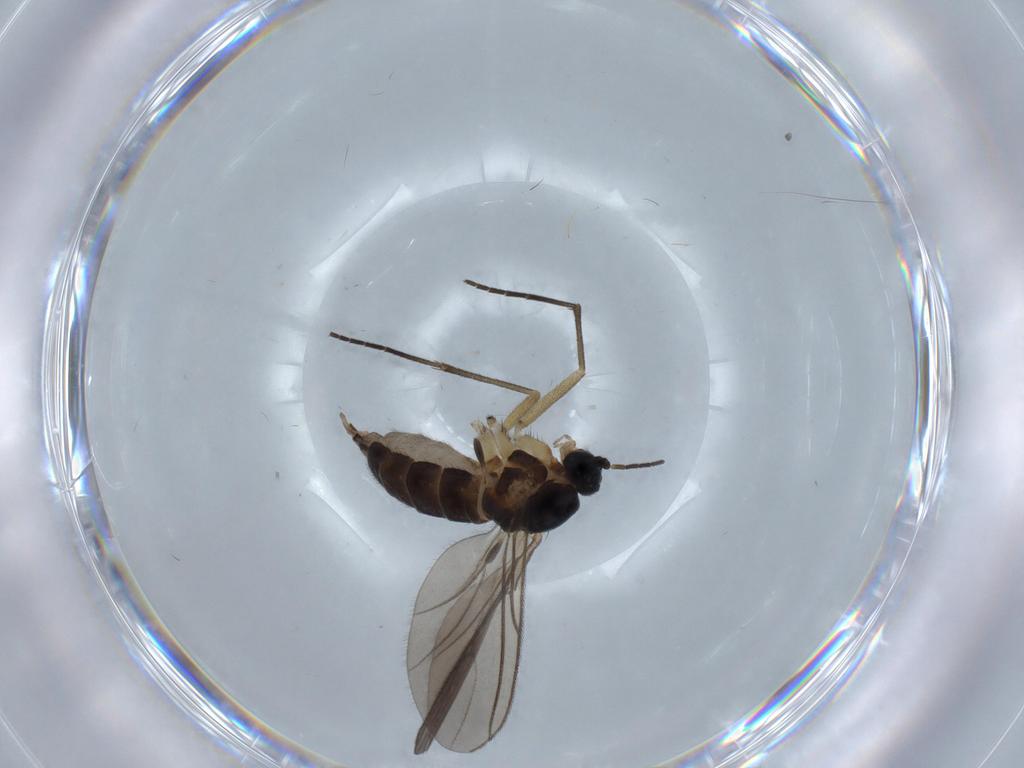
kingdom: Animalia
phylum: Arthropoda
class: Insecta
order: Diptera
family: Sciaridae
